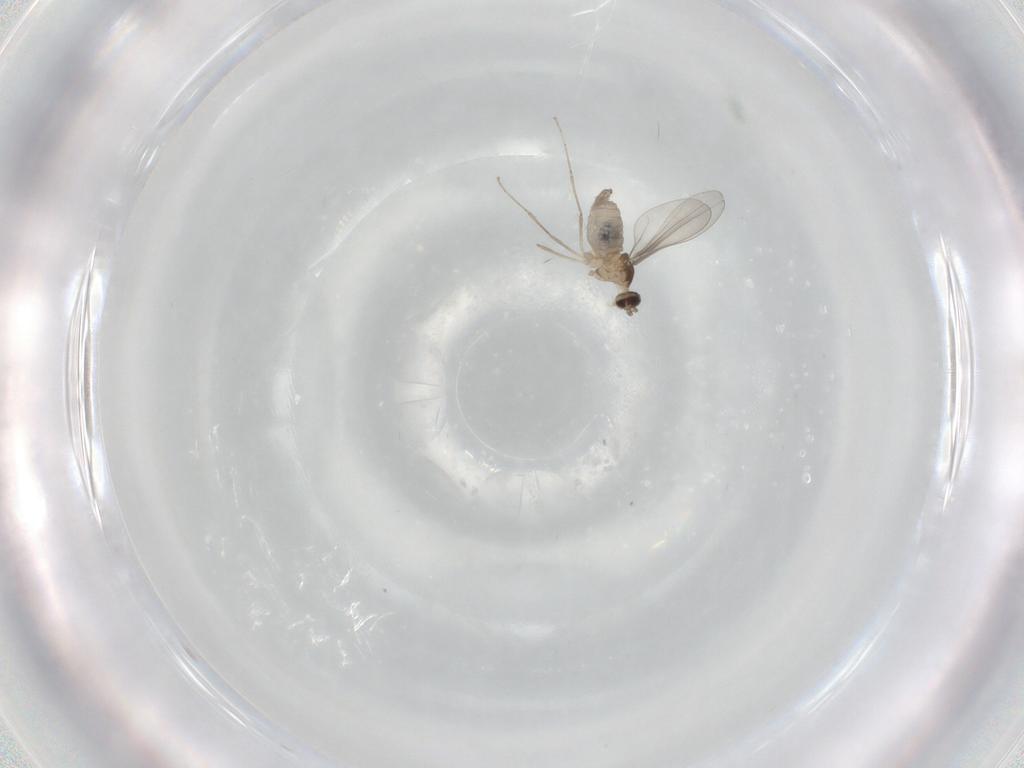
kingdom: Animalia
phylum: Arthropoda
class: Insecta
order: Diptera
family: Cecidomyiidae
